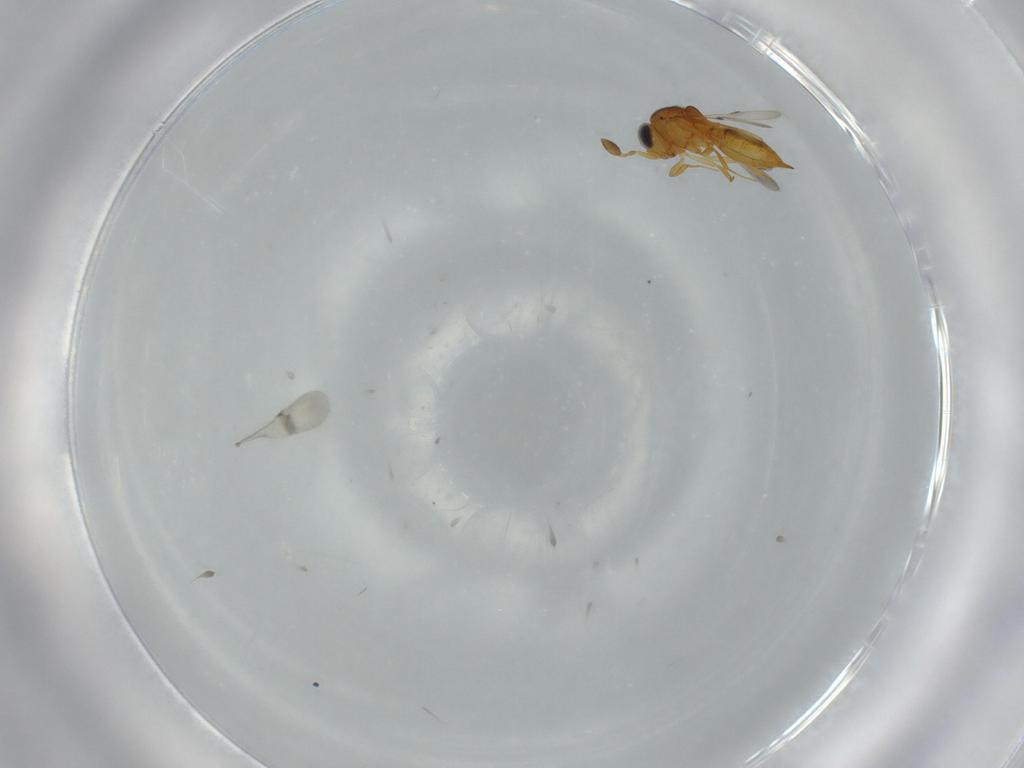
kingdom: Animalia
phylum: Arthropoda
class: Insecta
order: Hymenoptera
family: Scelionidae
